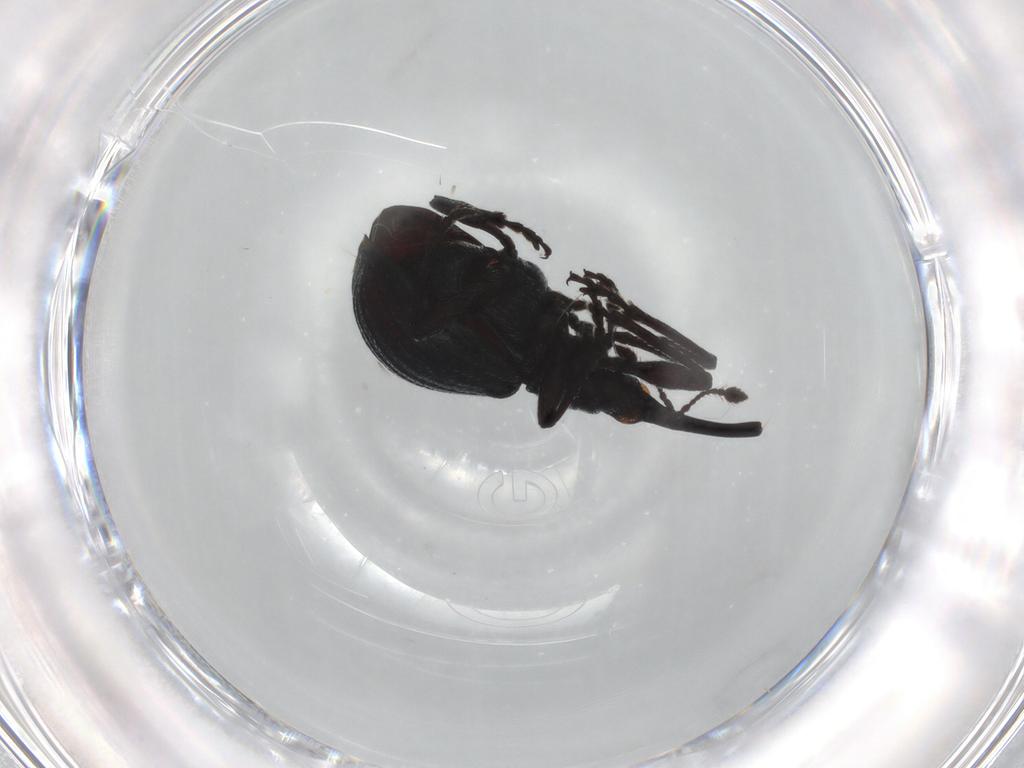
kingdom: Animalia
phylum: Arthropoda
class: Insecta
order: Coleoptera
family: Brentidae
